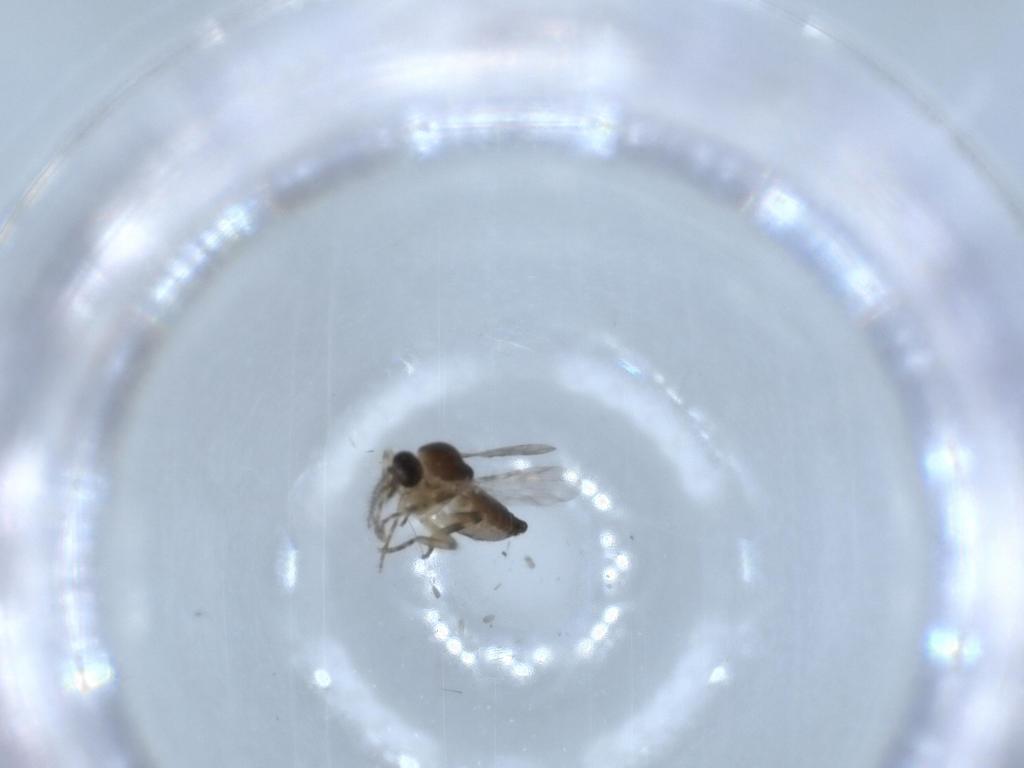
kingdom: Animalia
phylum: Arthropoda
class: Insecta
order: Diptera
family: Ceratopogonidae
